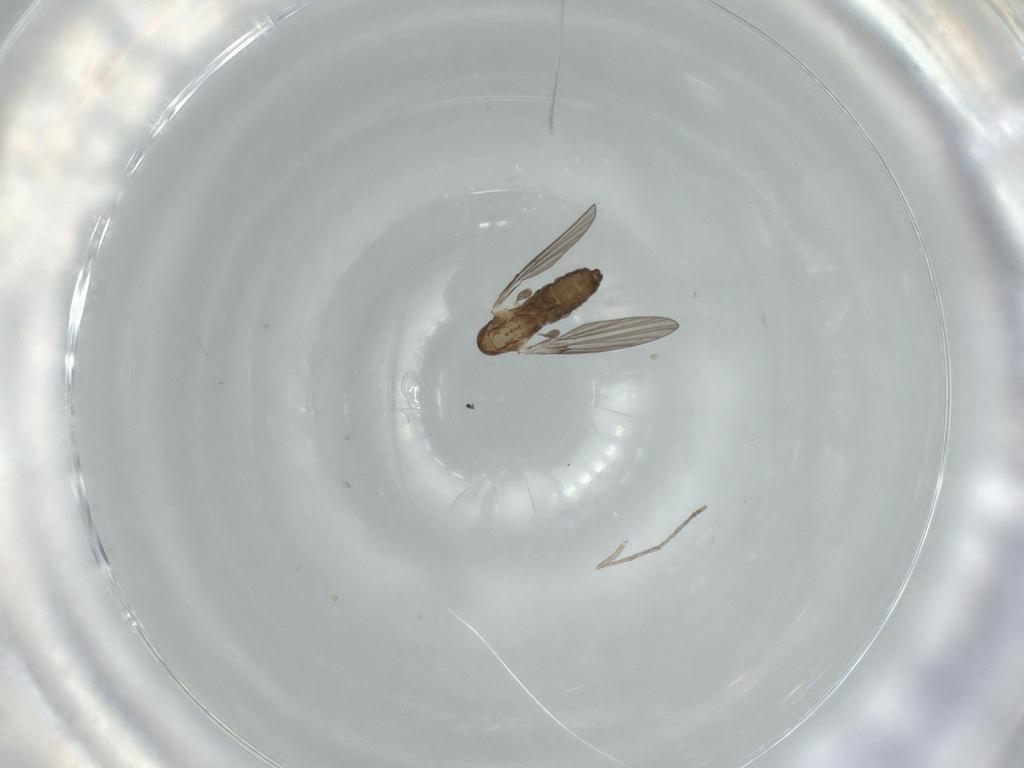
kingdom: Animalia
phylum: Arthropoda
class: Insecta
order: Diptera
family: Psychodidae
